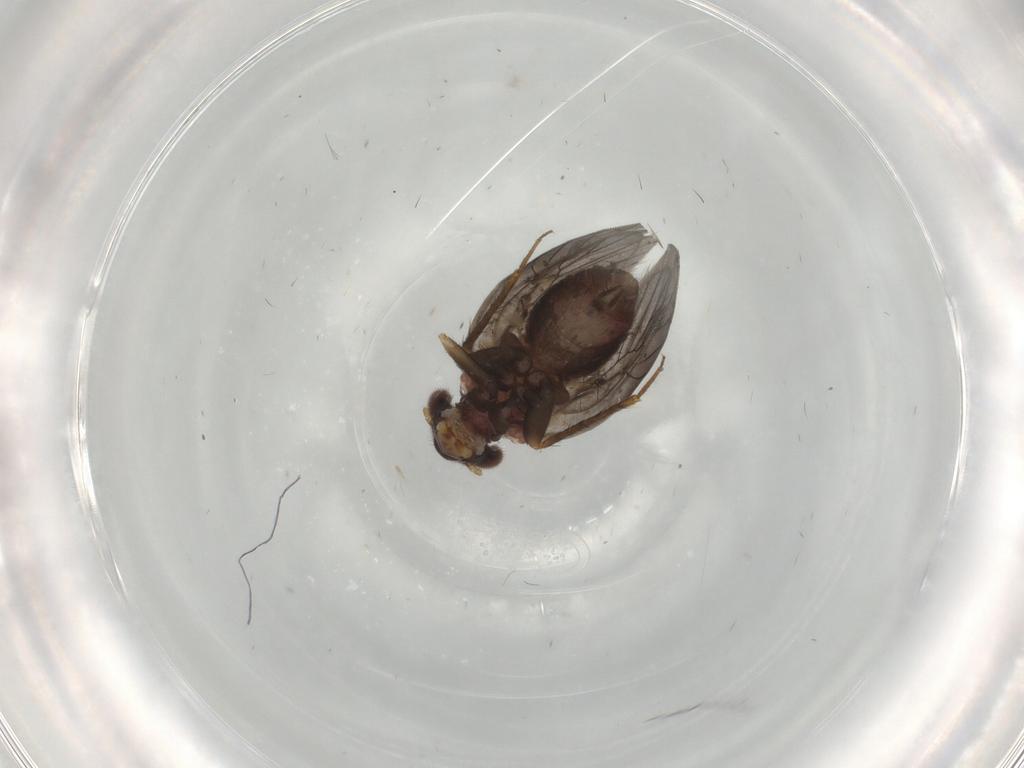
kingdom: Animalia
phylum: Arthropoda
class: Insecta
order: Psocodea
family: Lepidopsocidae
